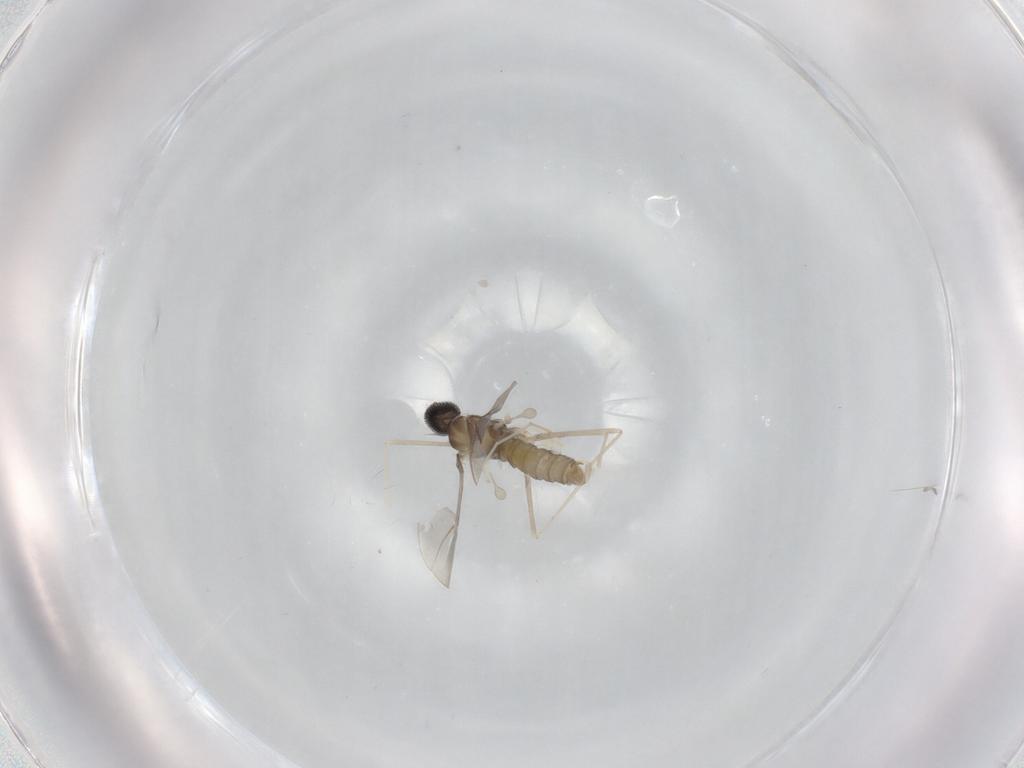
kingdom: Animalia
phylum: Arthropoda
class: Insecta
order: Diptera
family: Cecidomyiidae
